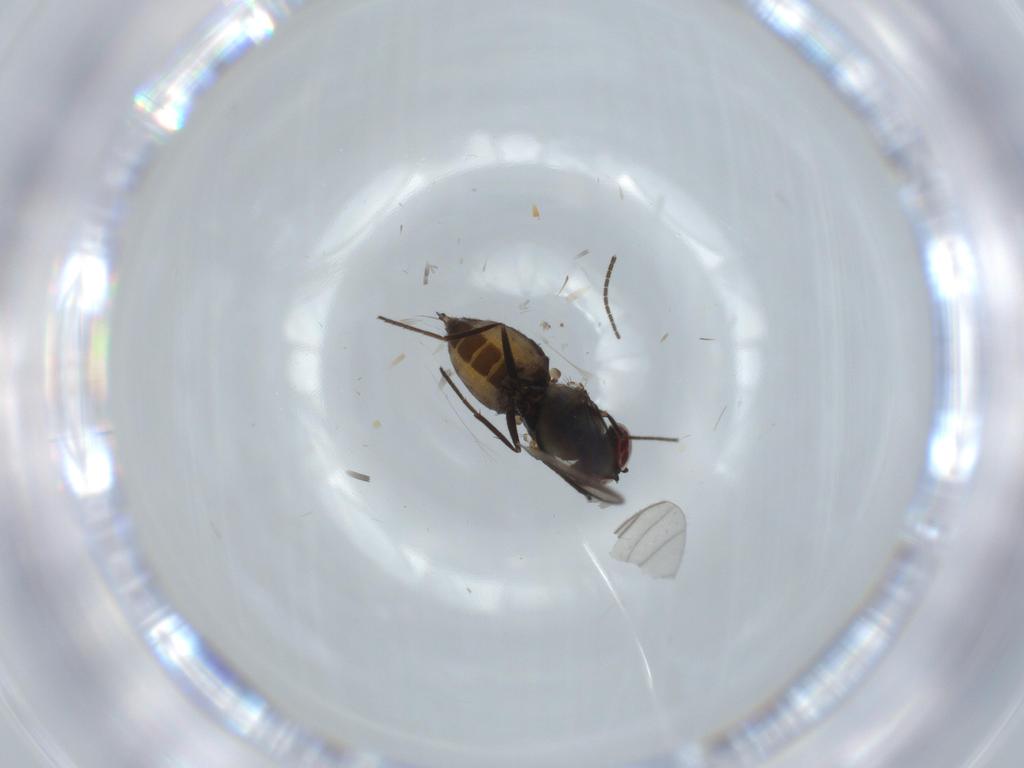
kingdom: Animalia
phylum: Arthropoda
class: Insecta
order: Diptera
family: Sciaridae
